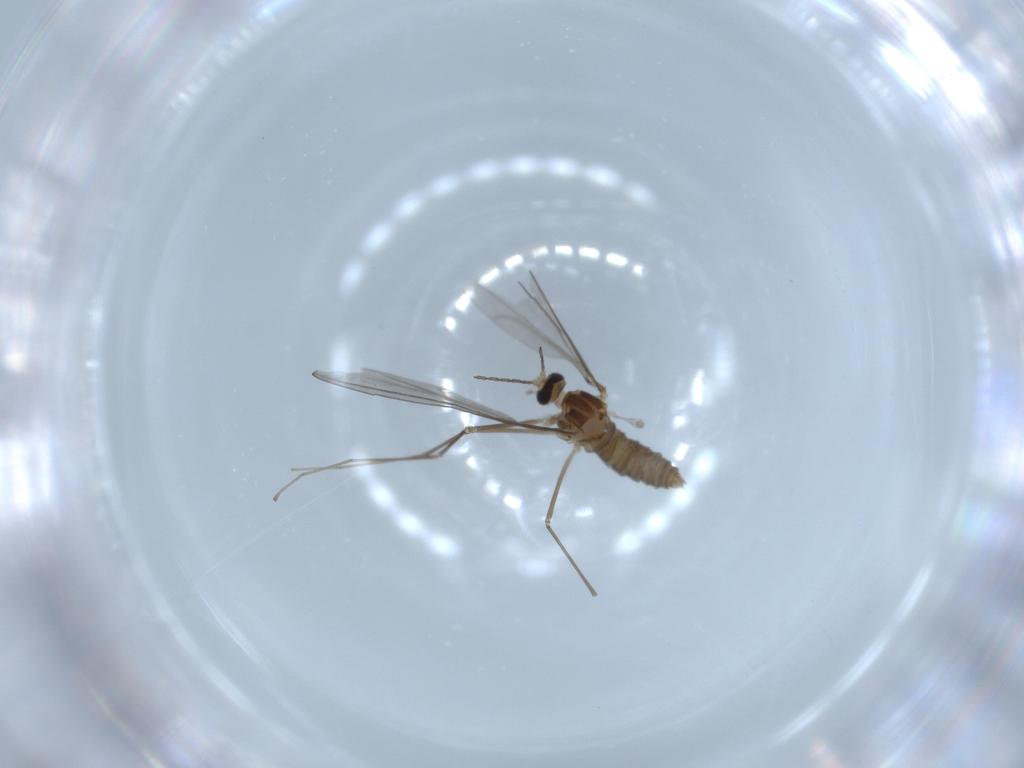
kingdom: Animalia
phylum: Arthropoda
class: Insecta
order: Diptera
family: Cecidomyiidae
